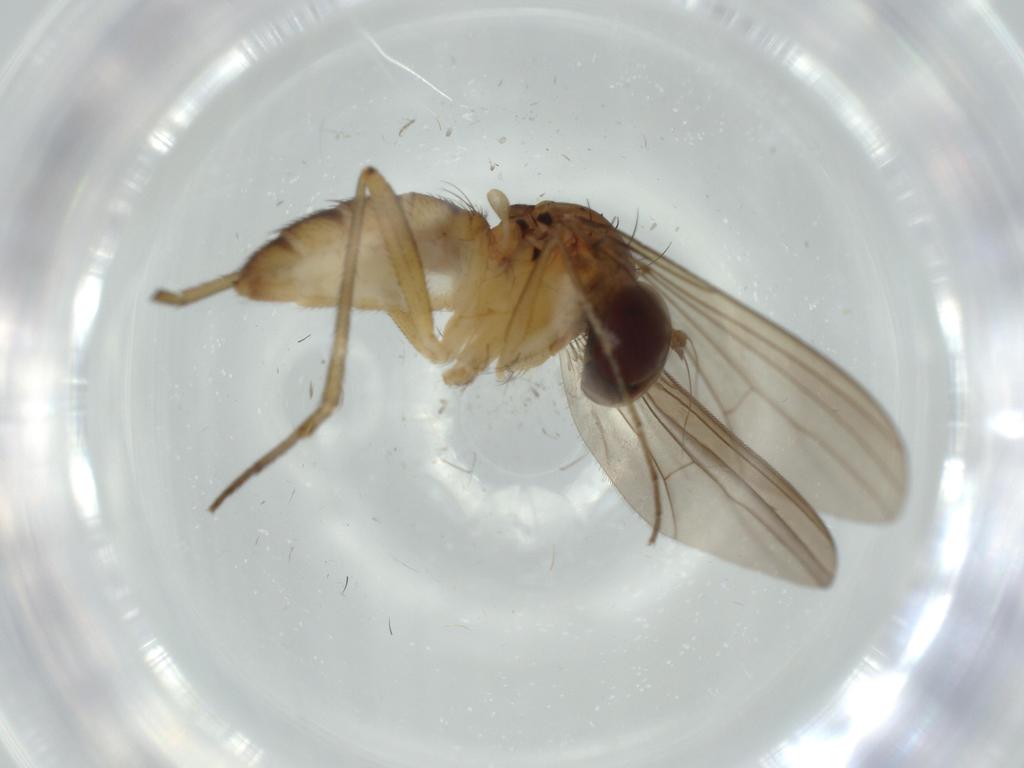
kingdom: Animalia
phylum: Arthropoda
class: Insecta
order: Diptera
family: Dolichopodidae
